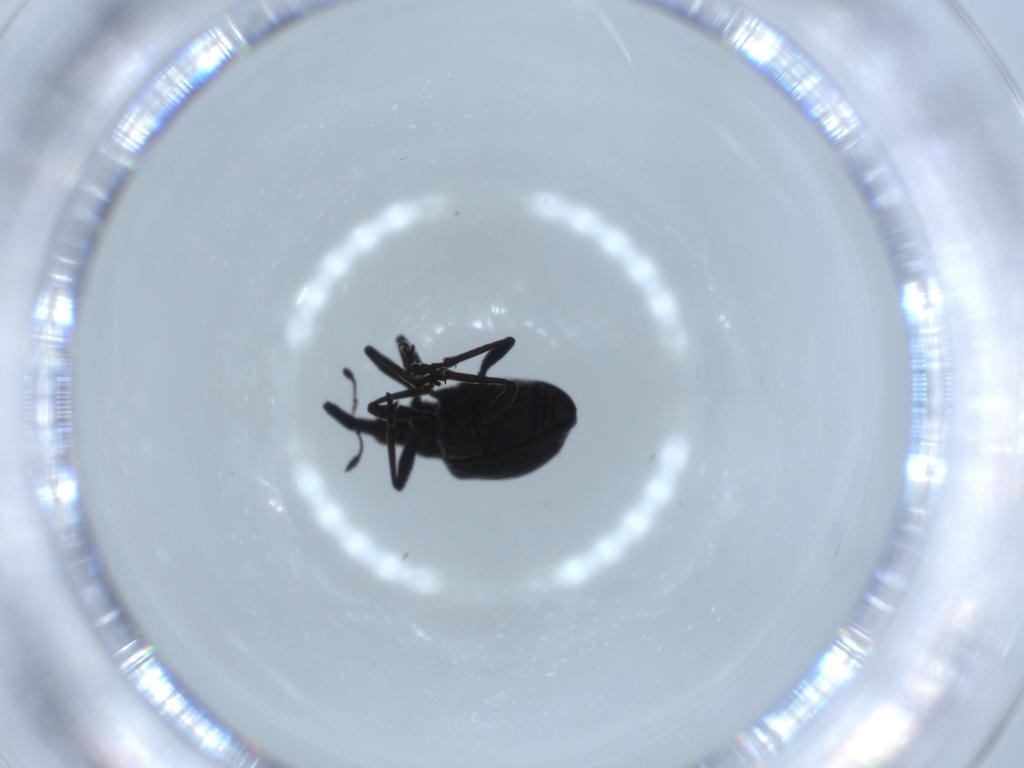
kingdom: Animalia
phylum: Arthropoda
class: Insecta
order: Coleoptera
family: Brentidae
